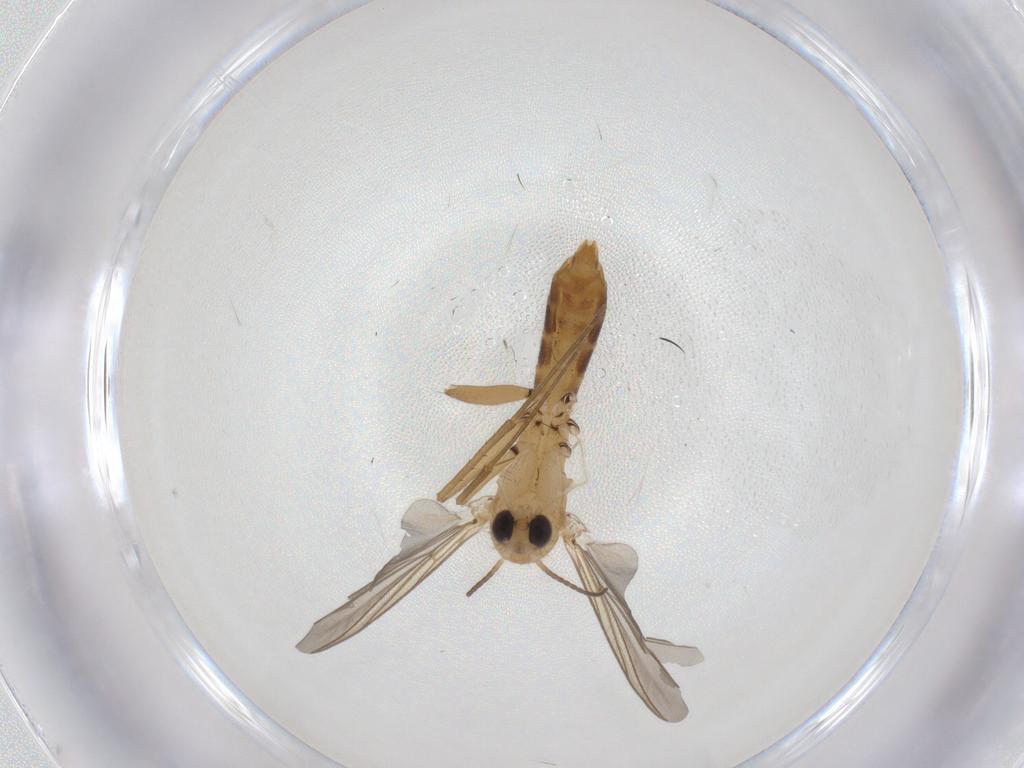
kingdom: Animalia
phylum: Arthropoda
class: Insecta
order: Diptera
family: Mycetophilidae
